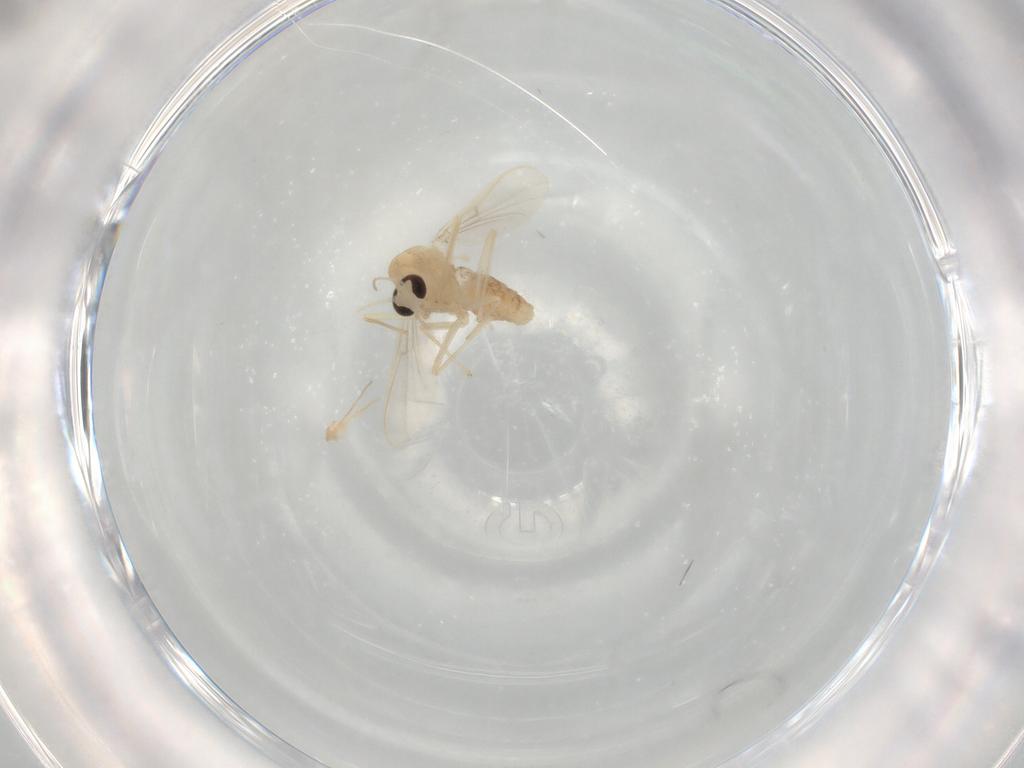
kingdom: Animalia
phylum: Arthropoda
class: Insecta
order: Diptera
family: Chironomidae
